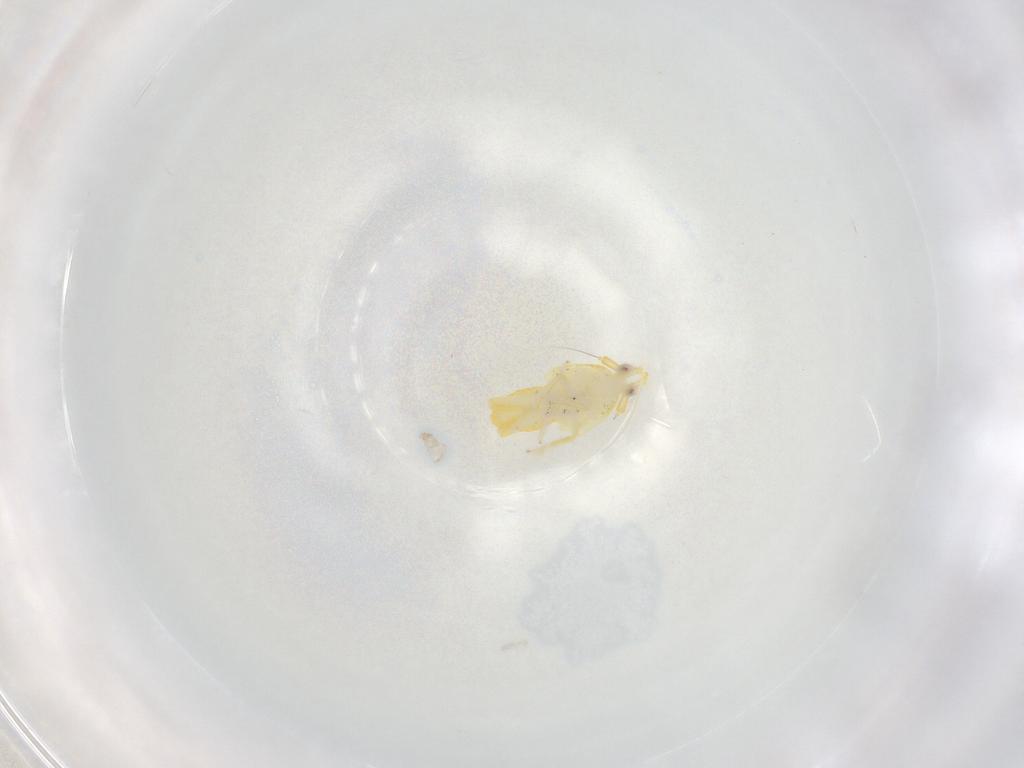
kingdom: Animalia
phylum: Arthropoda
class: Insecta
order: Hemiptera
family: Delphacidae
